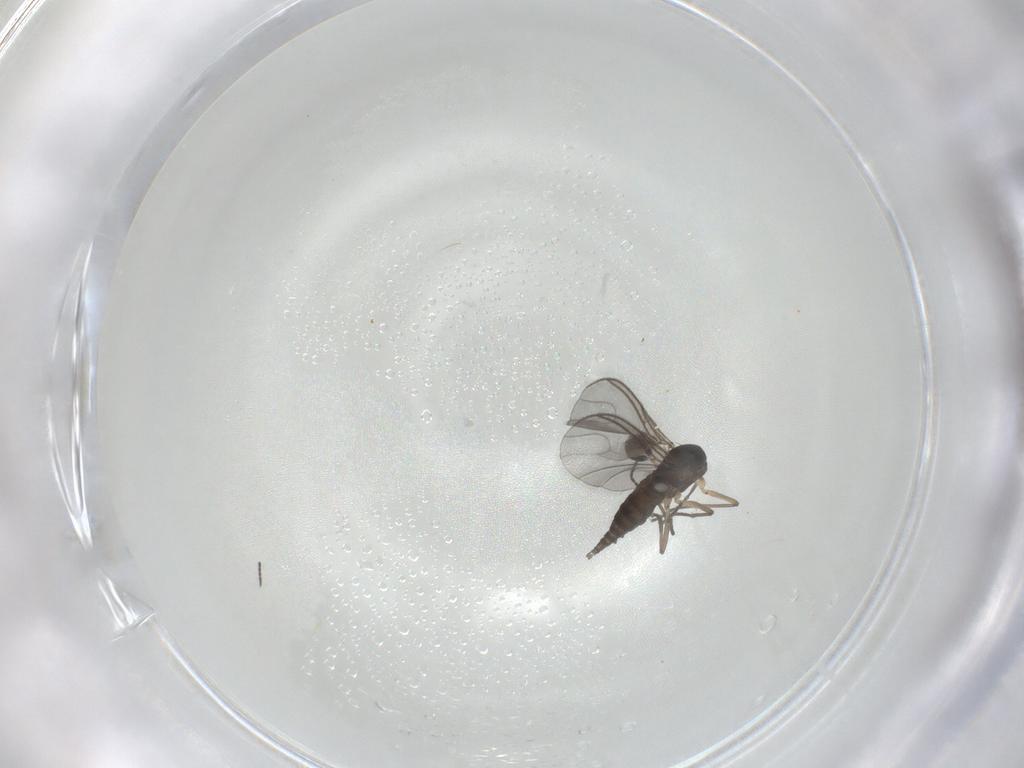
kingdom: Animalia
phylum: Arthropoda
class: Insecta
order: Diptera
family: Sciaridae
